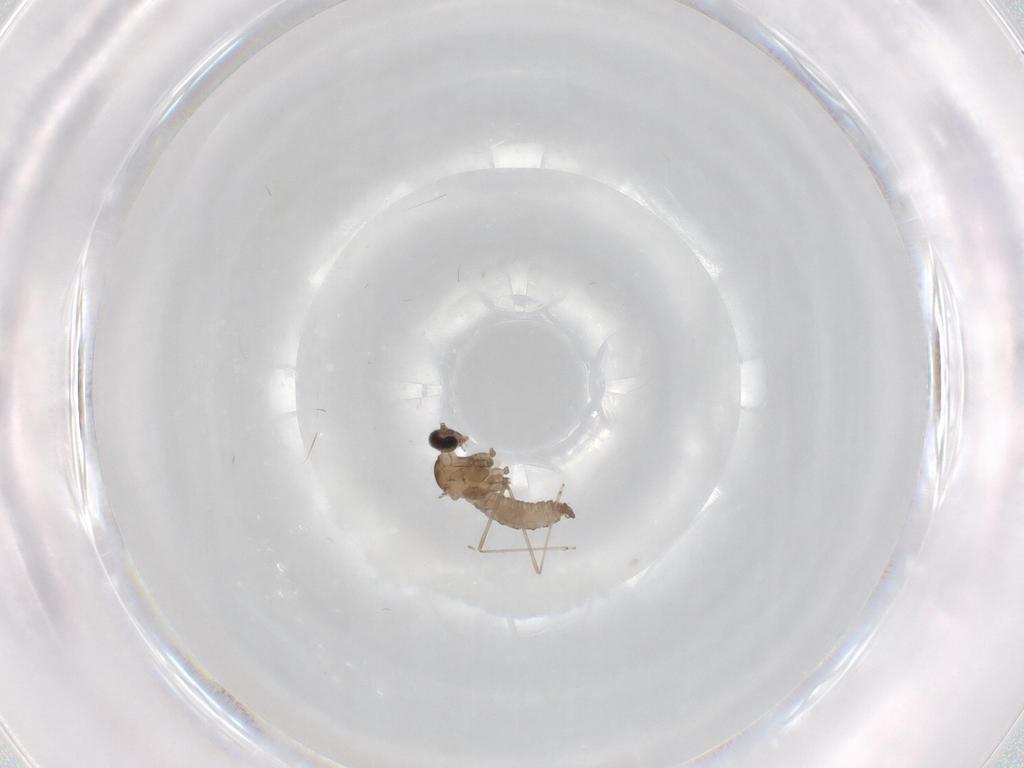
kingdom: Animalia
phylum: Arthropoda
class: Insecta
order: Diptera
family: Cecidomyiidae
